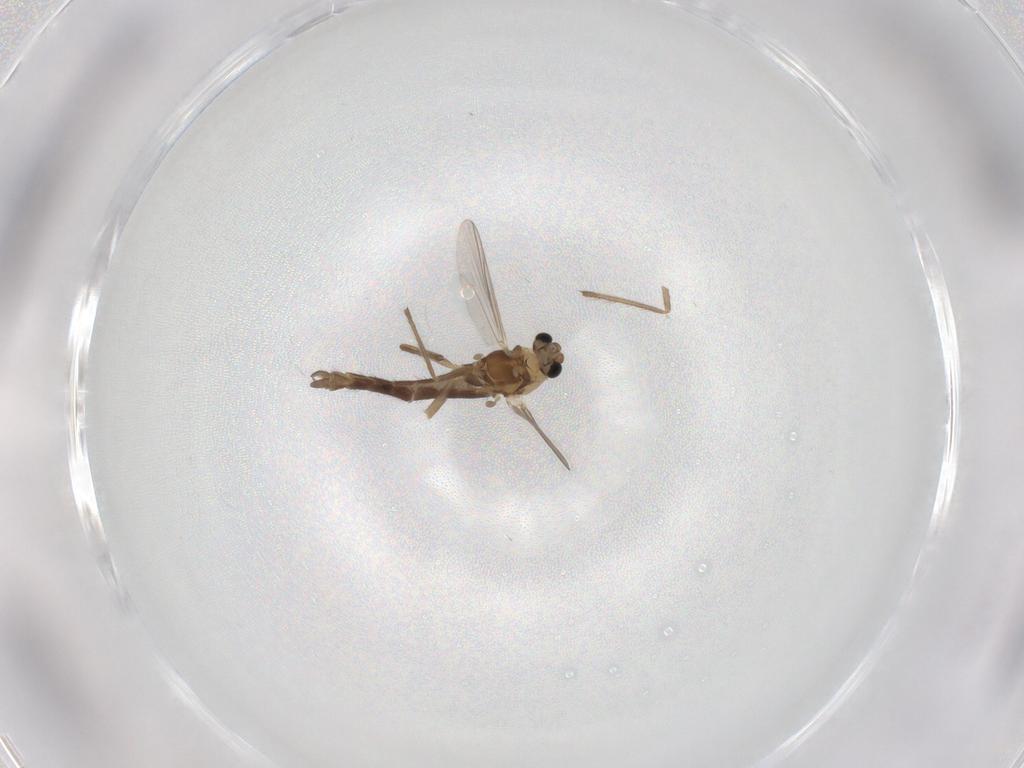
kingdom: Animalia
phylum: Arthropoda
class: Insecta
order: Diptera
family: Chironomidae
